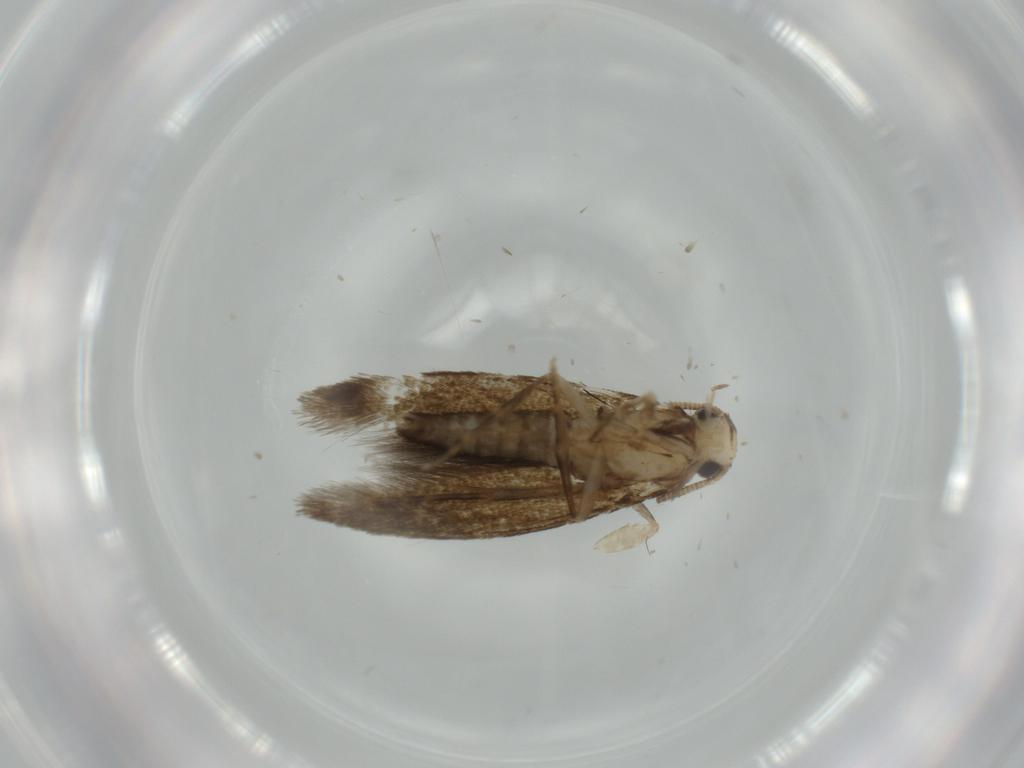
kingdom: Animalia
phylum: Arthropoda
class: Insecta
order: Lepidoptera
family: Tineidae
